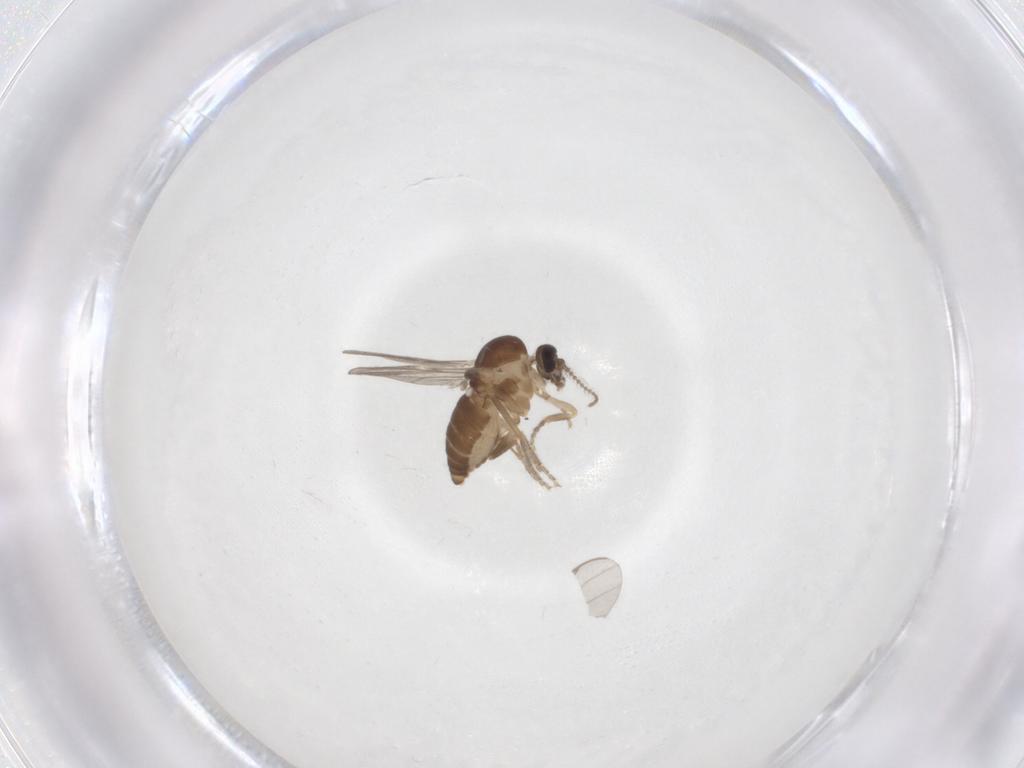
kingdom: Animalia
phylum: Arthropoda
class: Insecta
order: Diptera
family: Ceratopogonidae
